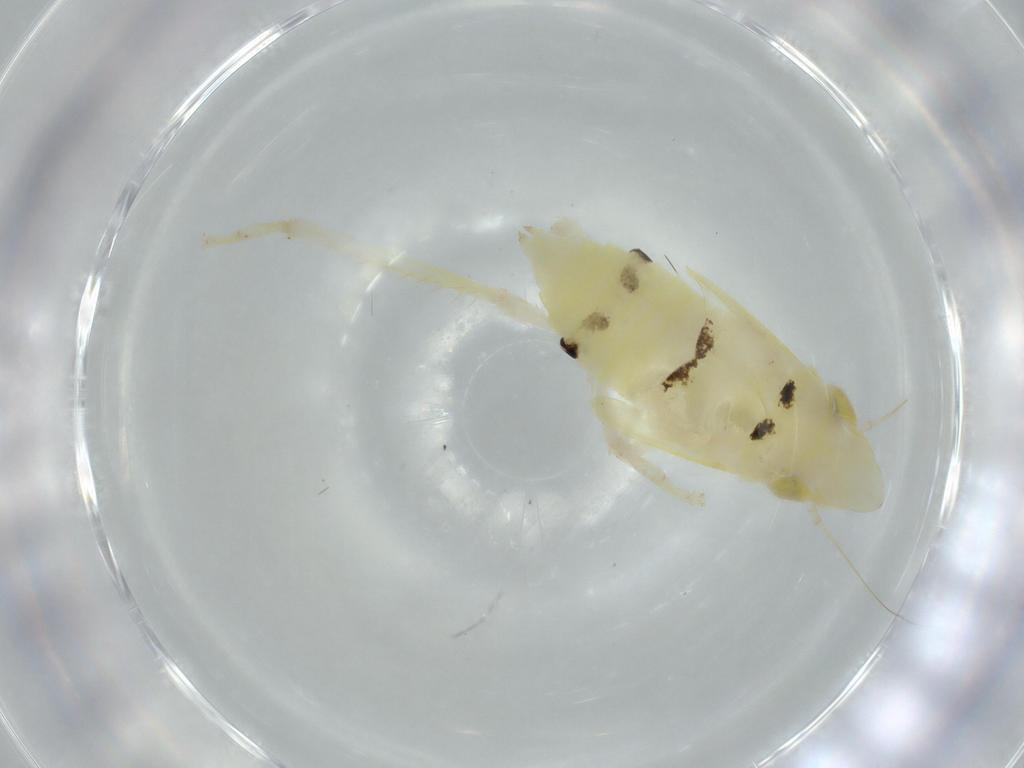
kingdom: Animalia
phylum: Arthropoda
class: Insecta
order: Hemiptera
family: Cicadellidae
